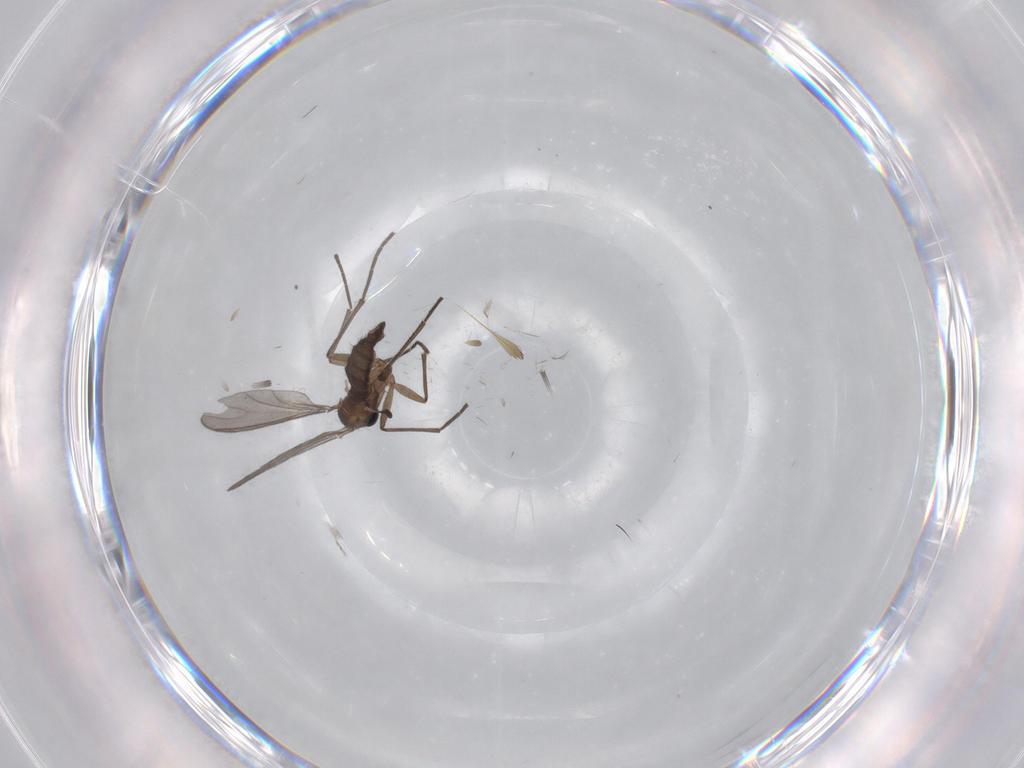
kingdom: Animalia
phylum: Arthropoda
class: Insecta
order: Diptera
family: Sciaridae
